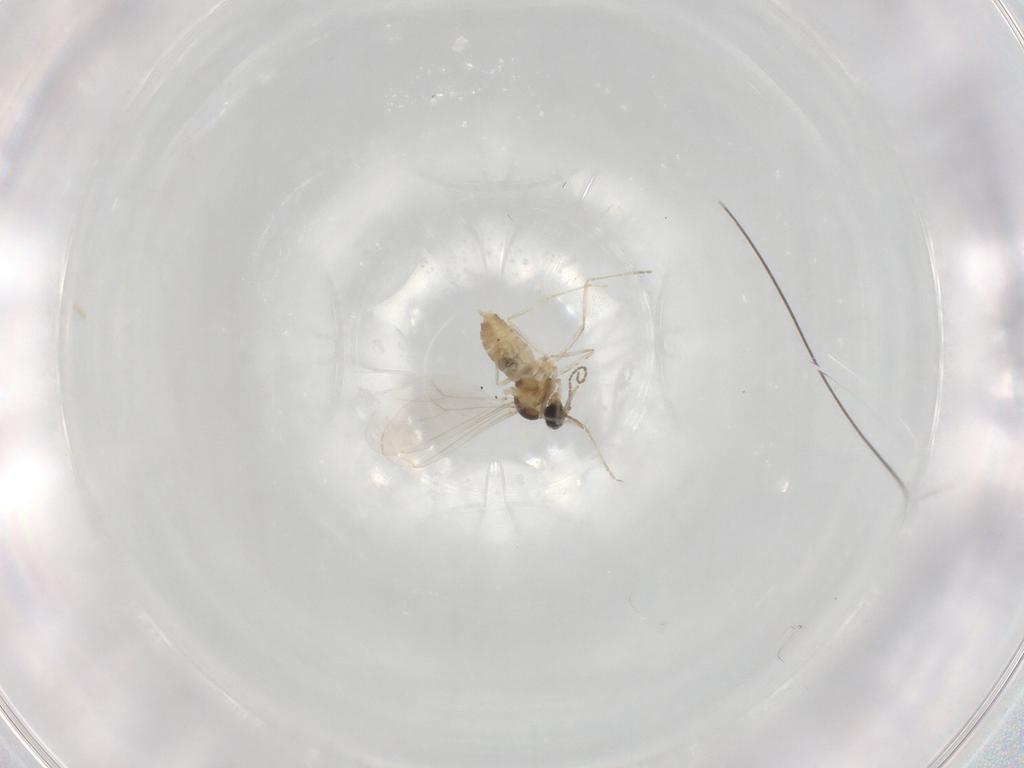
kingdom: Animalia
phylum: Arthropoda
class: Insecta
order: Diptera
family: Cecidomyiidae
